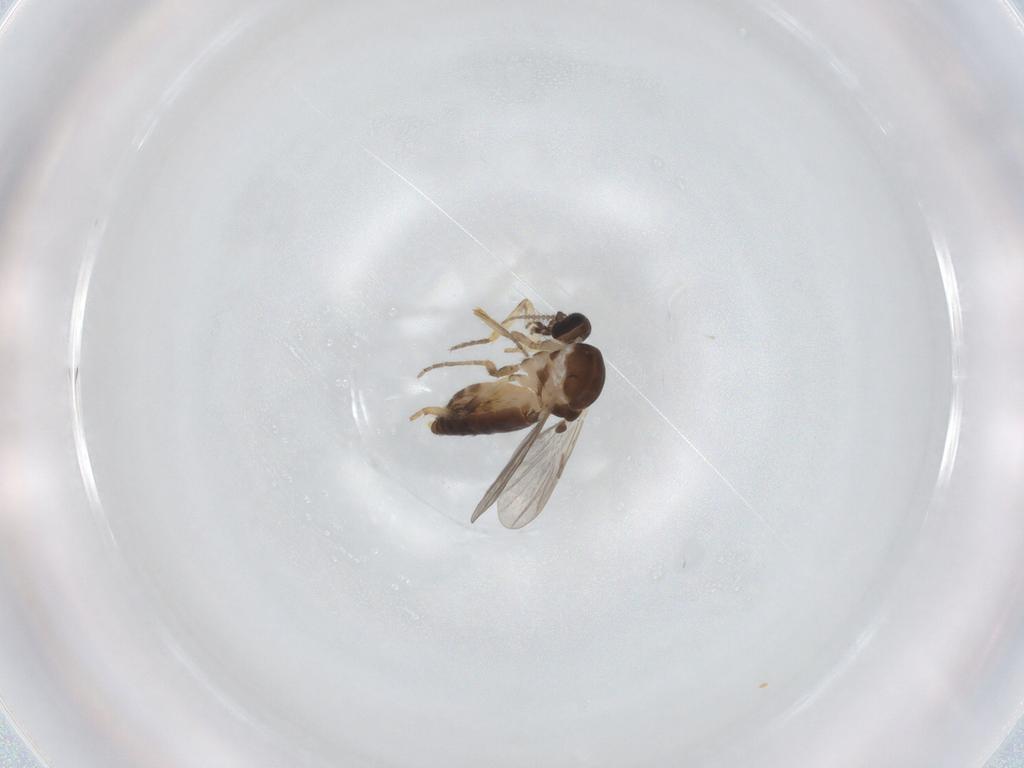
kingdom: Animalia
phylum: Arthropoda
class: Insecta
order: Diptera
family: Ceratopogonidae
